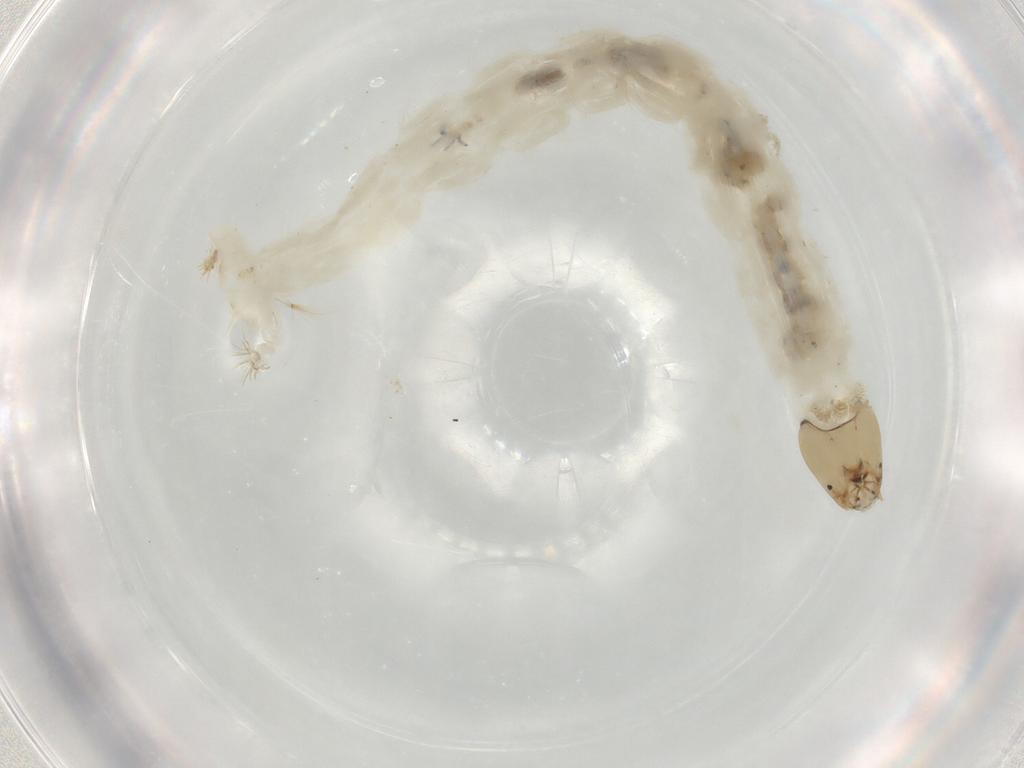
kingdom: Animalia
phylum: Arthropoda
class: Insecta
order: Diptera
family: Chironomidae
